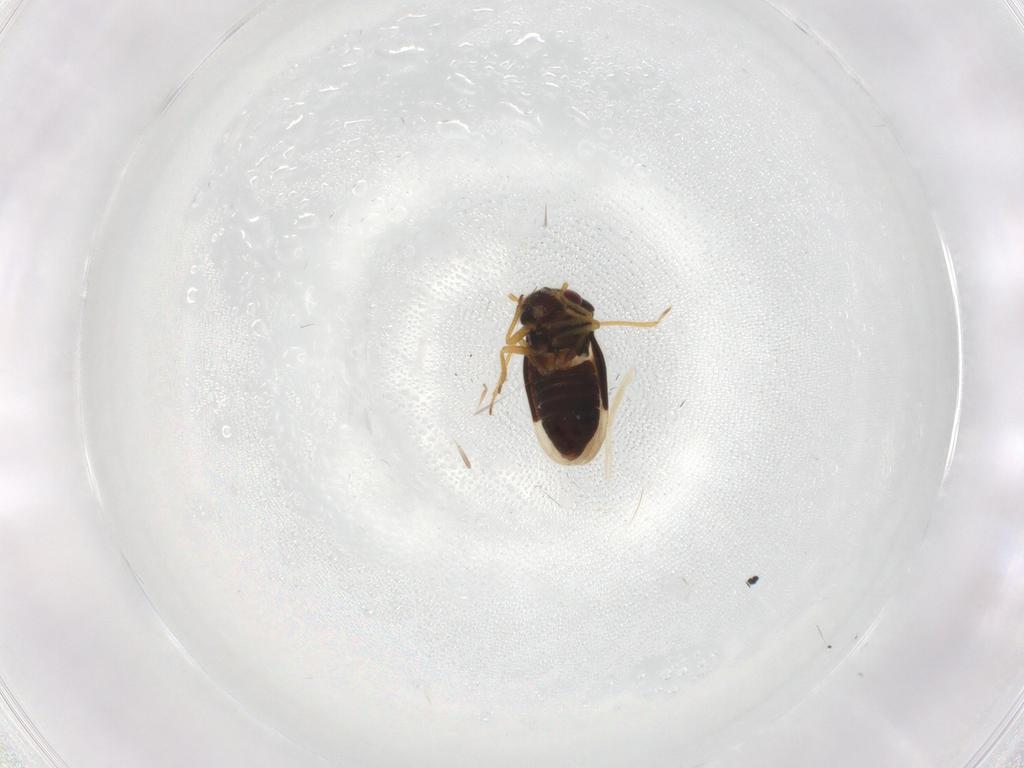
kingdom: Animalia
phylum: Arthropoda
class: Insecta
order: Hemiptera
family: Schizopteridae
